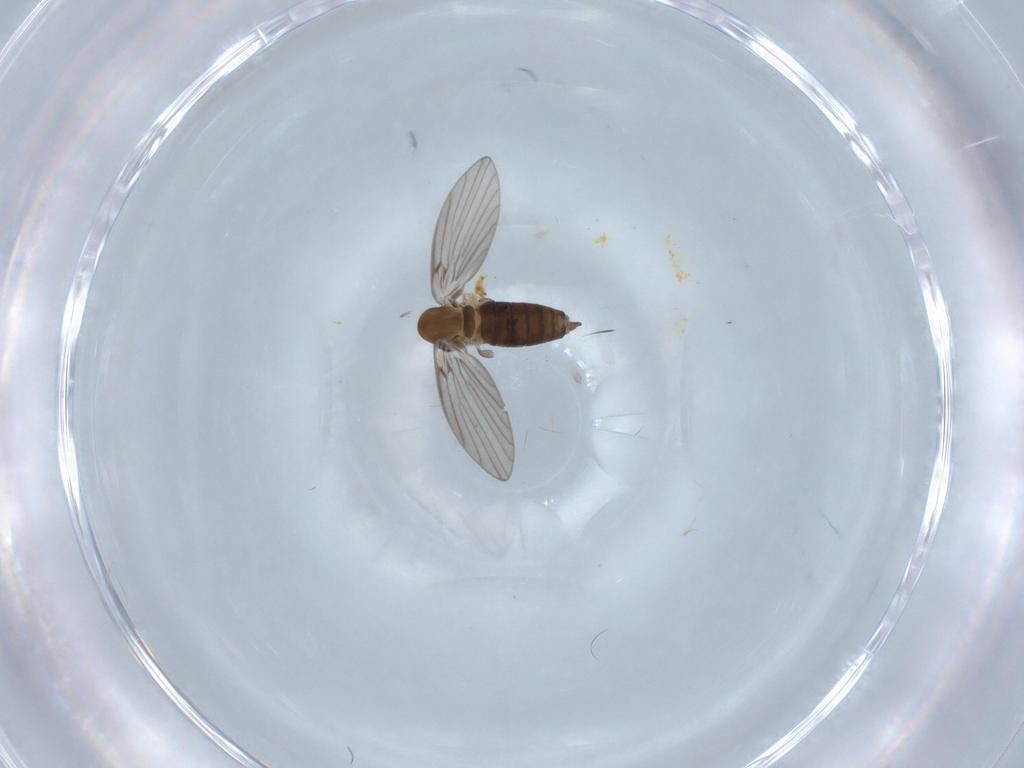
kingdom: Animalia
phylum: Arthropoda
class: Insecta
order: Diptera
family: Psychodidae
